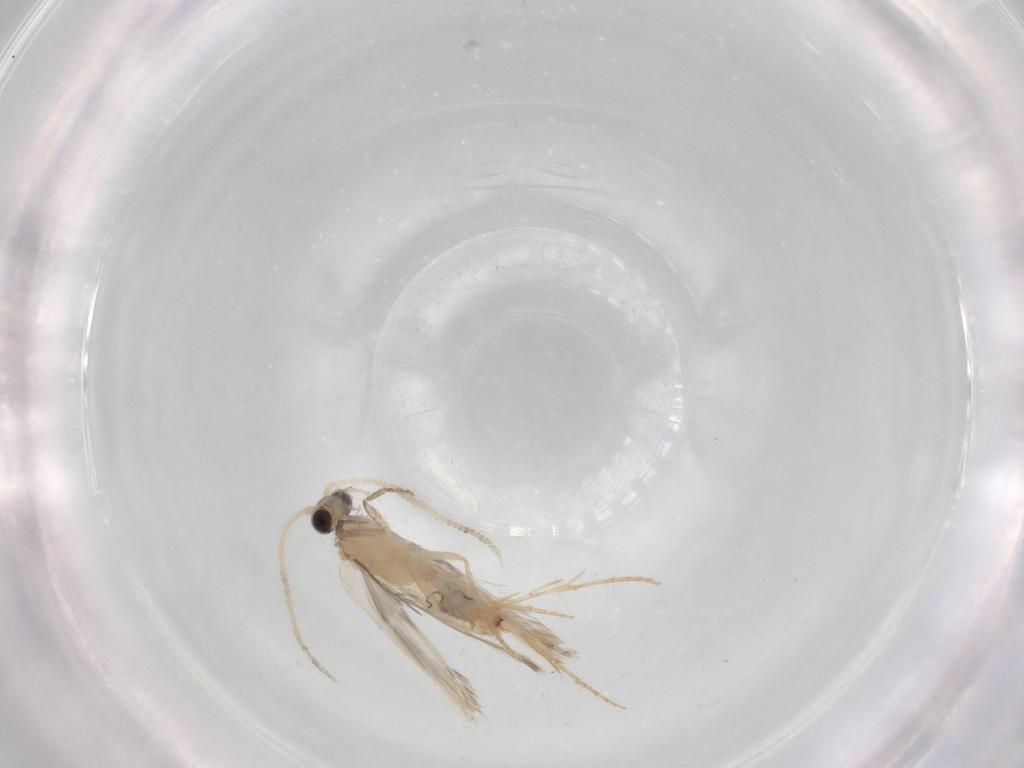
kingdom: Animalia
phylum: Arthropoda
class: Insecta
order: Trichoptera
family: Hydroptilidae
